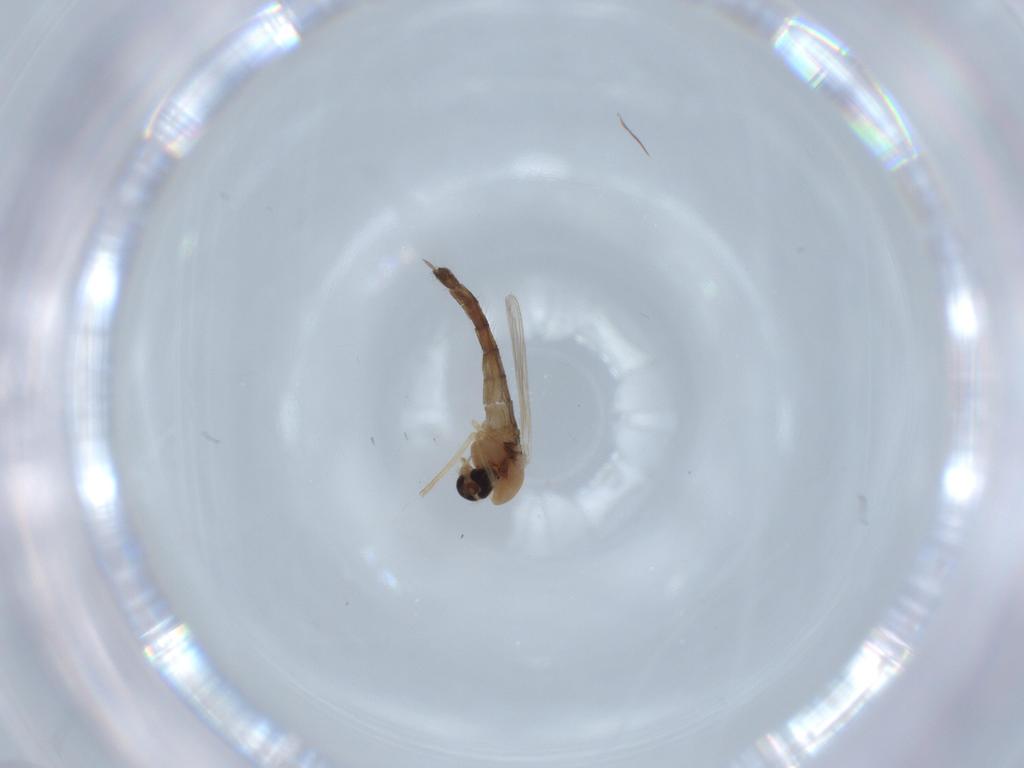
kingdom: Animalia
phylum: Arthropoda
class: Insecta
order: Diptera
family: Chironomidae
